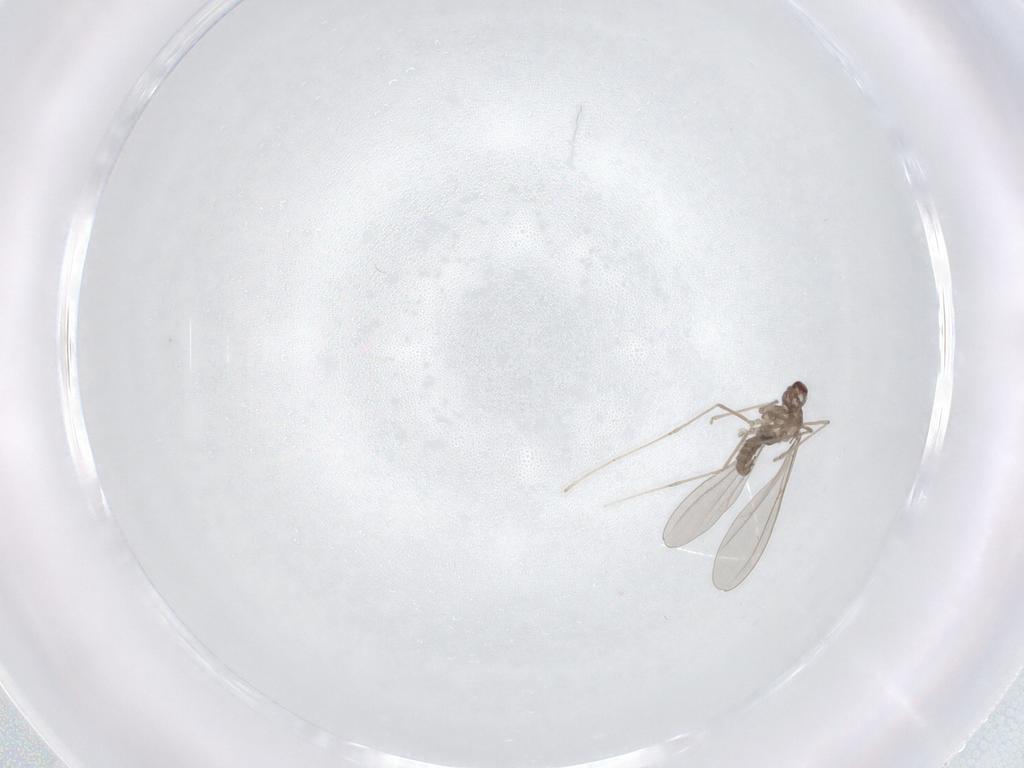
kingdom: Animalia
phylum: Arthropoda
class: Insecta
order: Diptera
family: Cecidomyiidae
